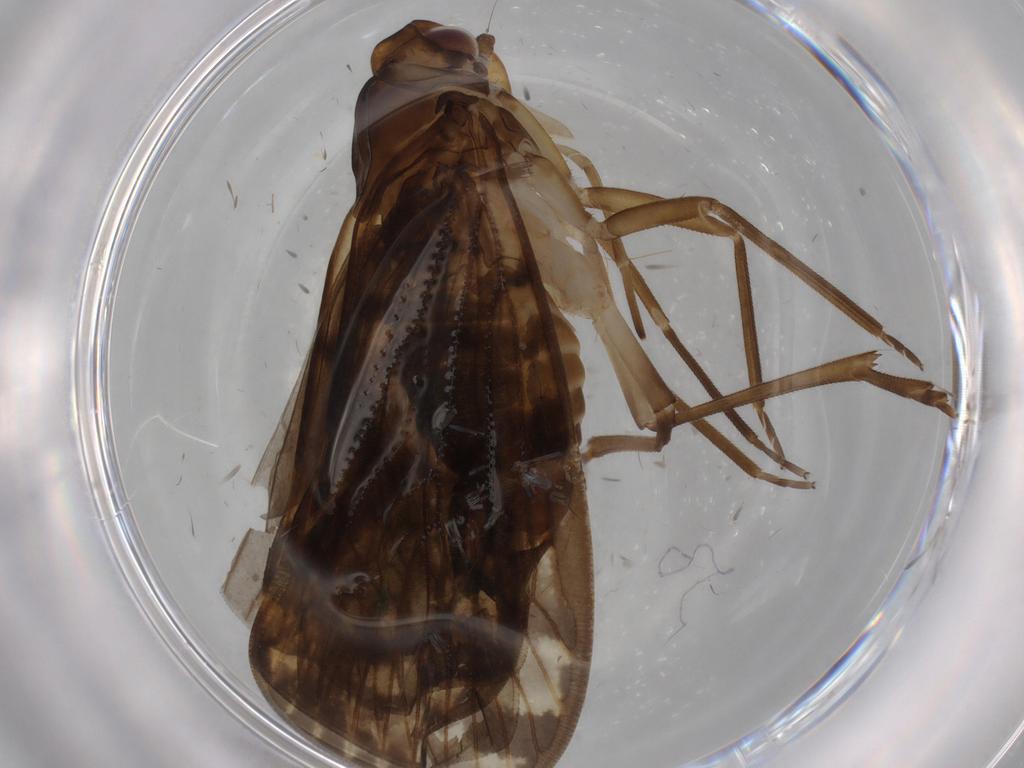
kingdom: Animalia
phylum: Arthropoda
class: Insecta
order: Hemiptera
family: Cixiidae
